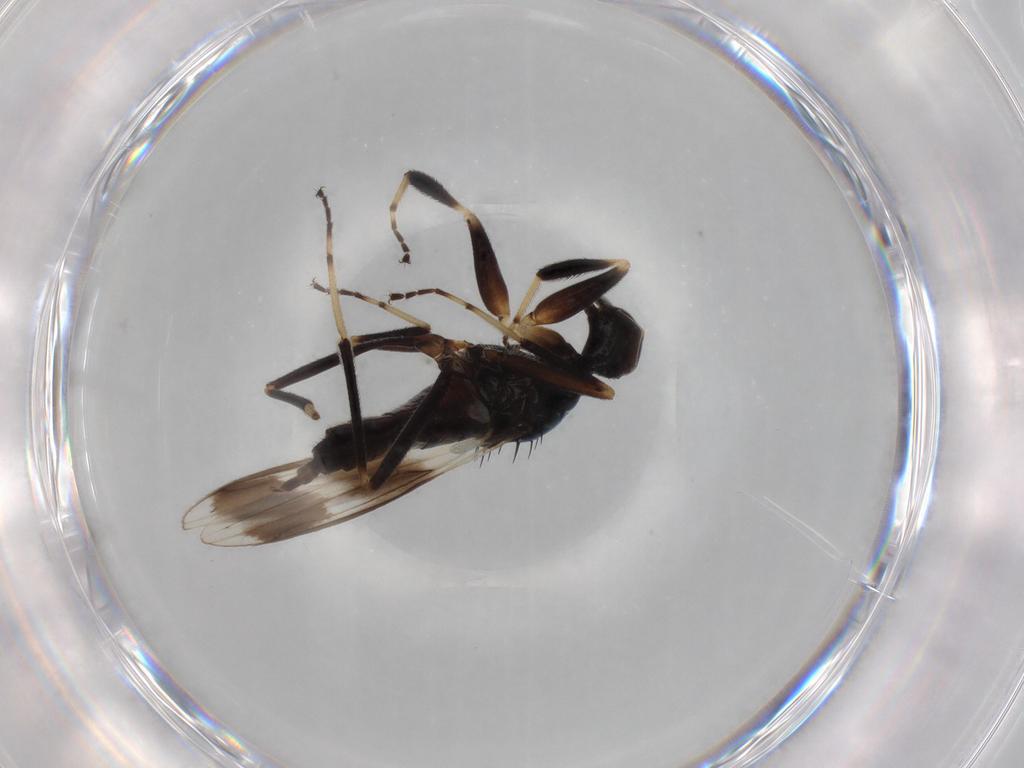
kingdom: Animalia
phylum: Arthropoda
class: Insecta
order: Diptera
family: Hybotidae
